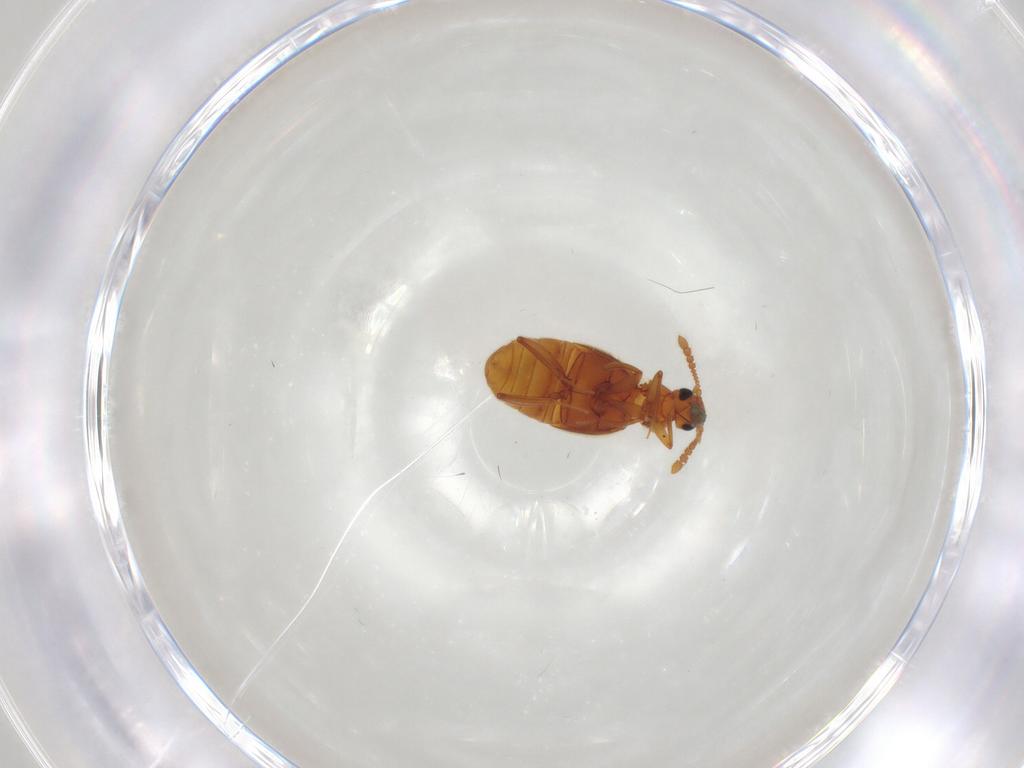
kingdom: Animalia
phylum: Arthropoda
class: Insecta
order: Coleoptera
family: Staphylinidae
